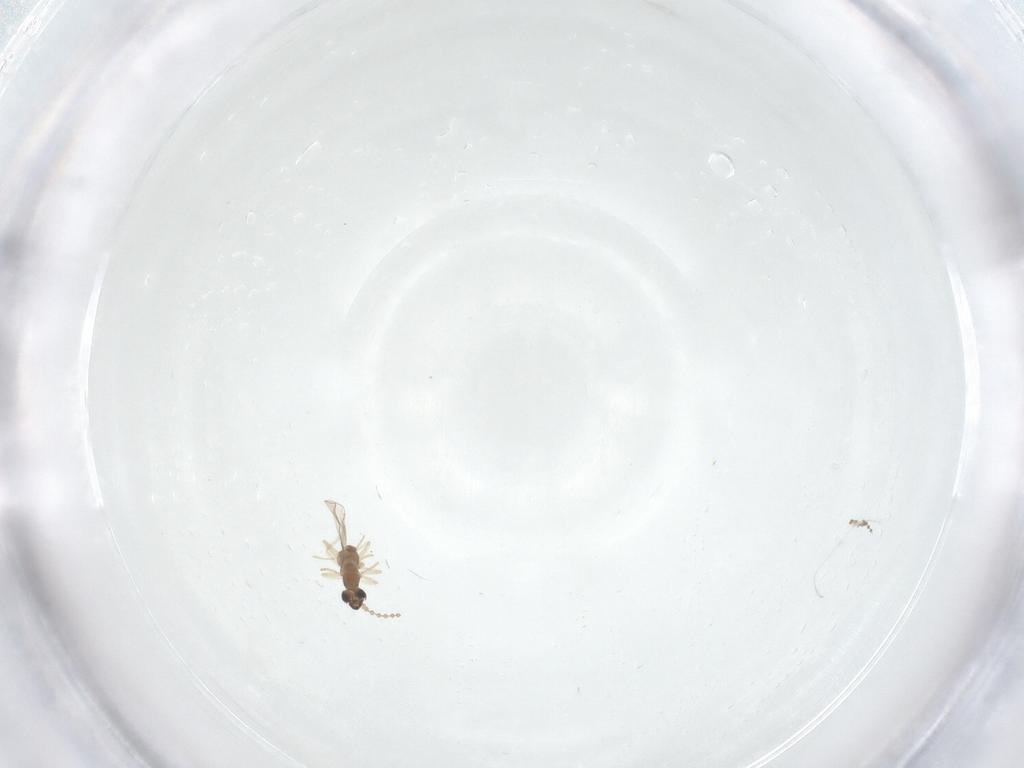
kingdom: Animalia
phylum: Arthropoda
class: Insecta
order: Diptera
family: Cecidomyiidae
